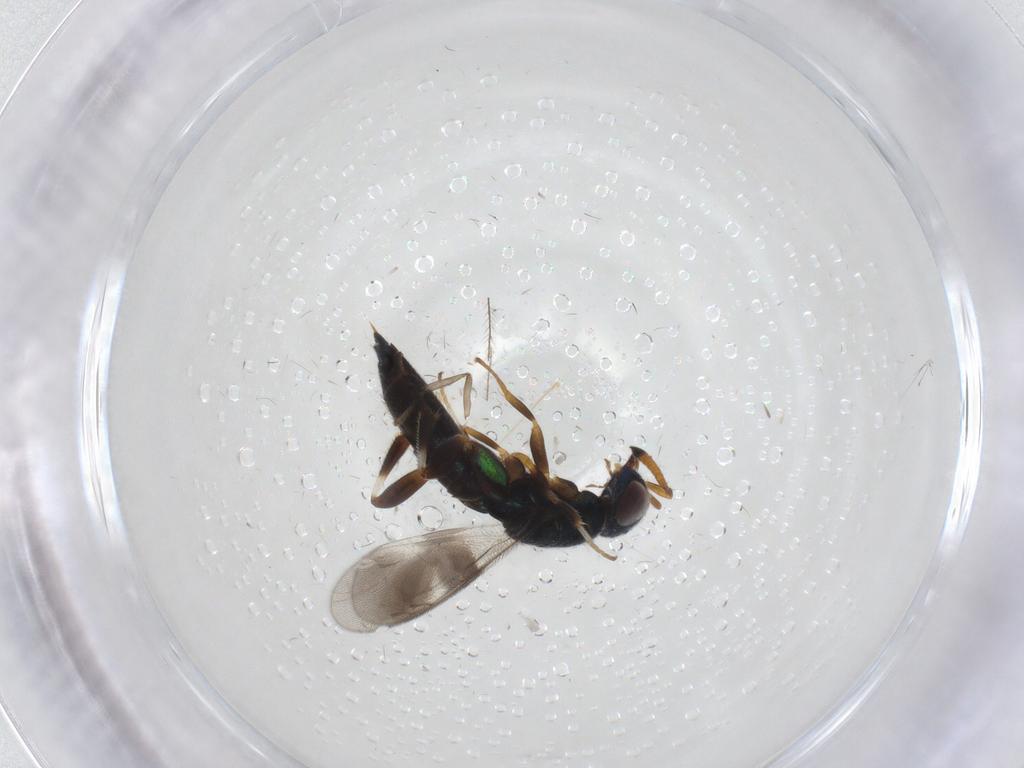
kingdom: Animalia
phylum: Arthropoda
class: Insecta
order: Hymenoptera
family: Cleonyminae
